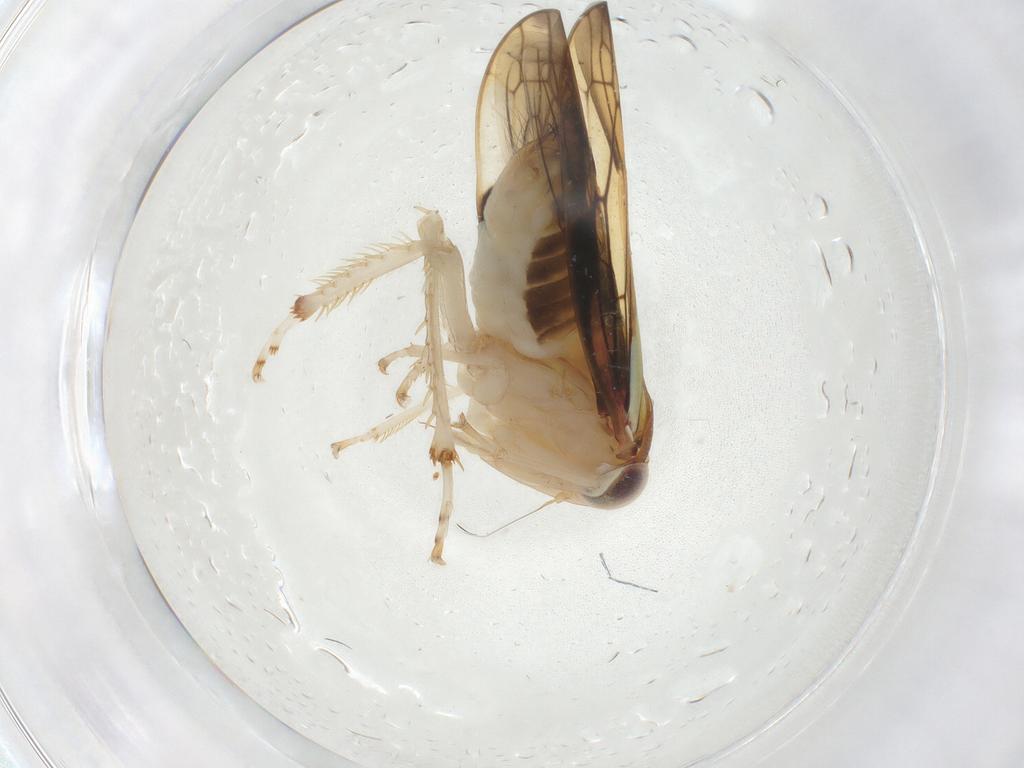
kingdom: Animalia
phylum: Arthropoda
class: Insecta
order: Hemiptera
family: Cicadellidae
